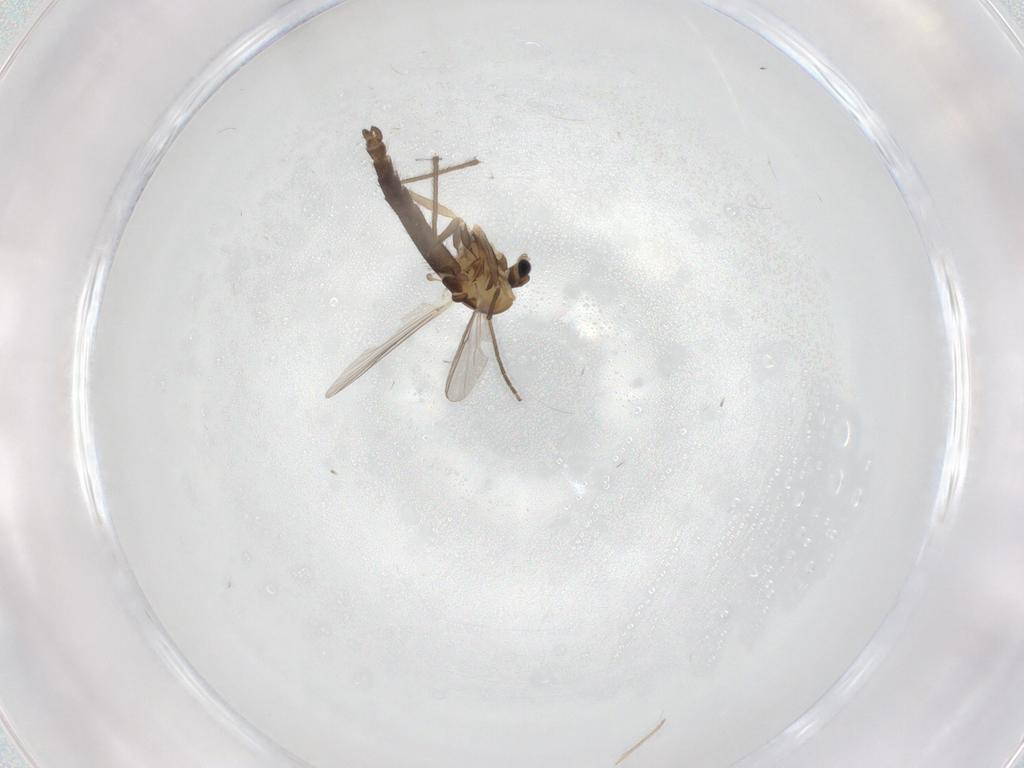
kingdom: Animalia
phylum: Arthropoda
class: Insecta
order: Diptera
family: Chironomidae
